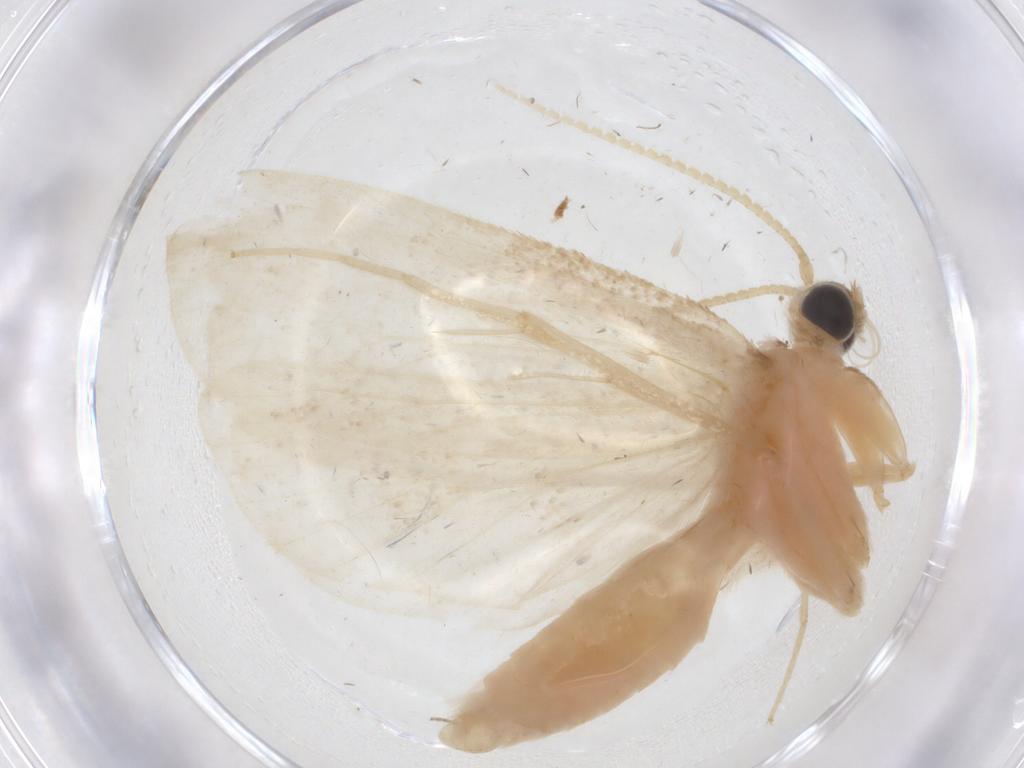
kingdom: Animalia
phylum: Arthropoda
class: Insecta
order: Lepidoptera
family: Crambidae
